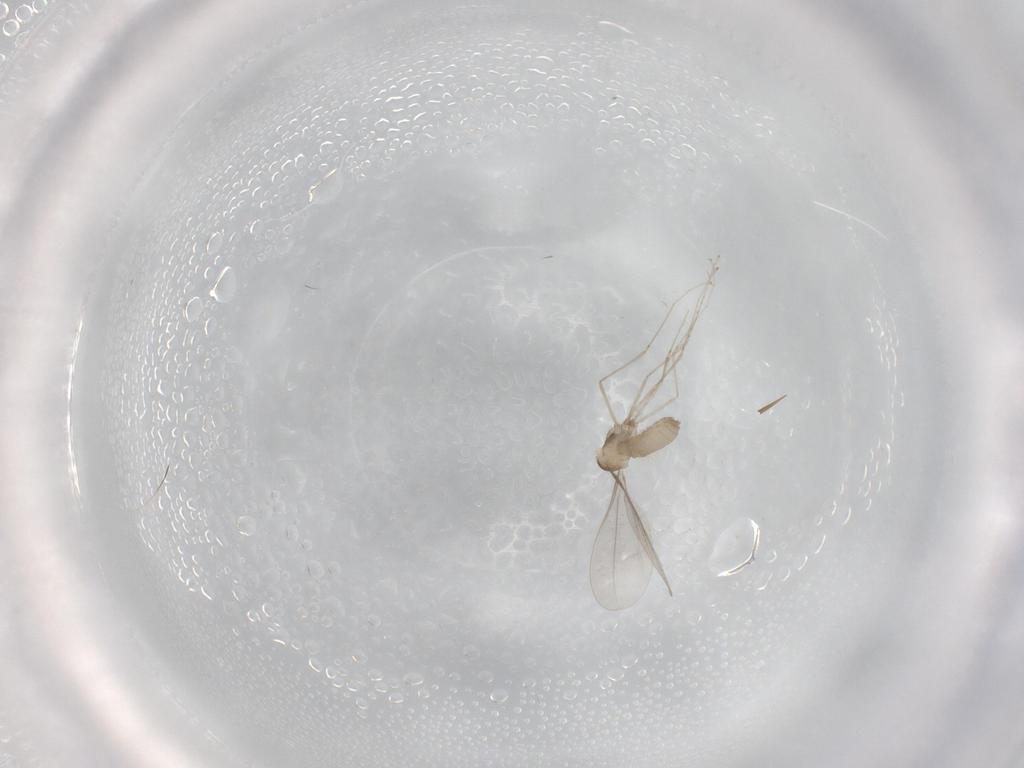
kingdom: Animalia
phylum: Arthropoda
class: Insecta
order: Diptera
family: Cecidomyiidae
